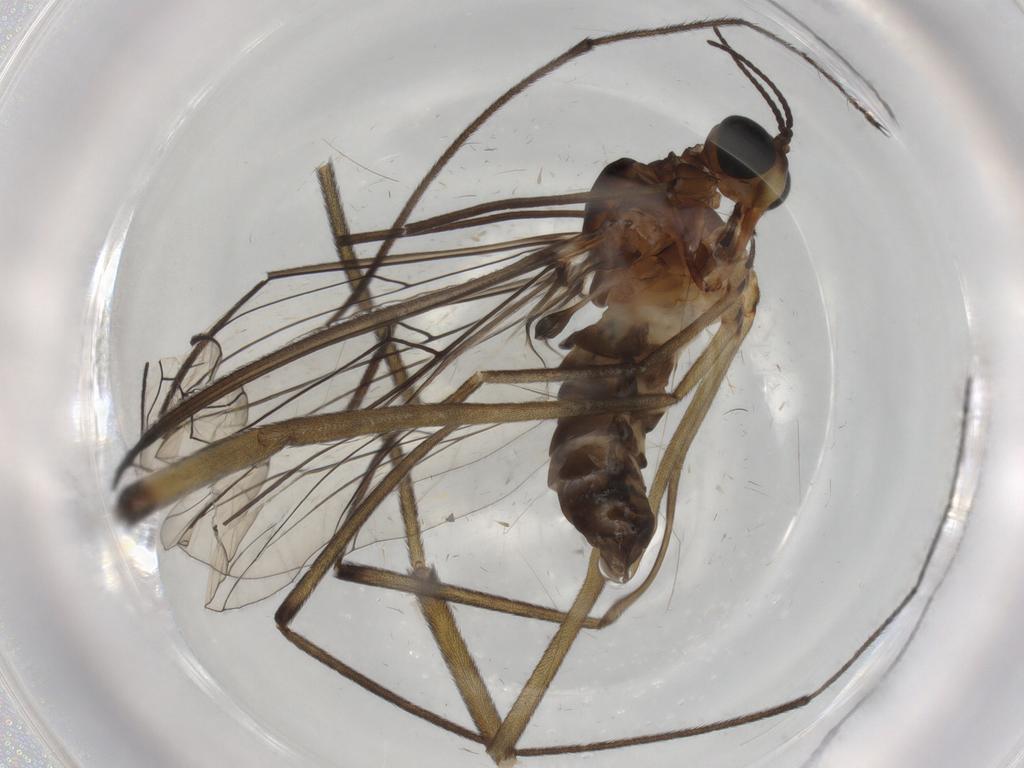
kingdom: Animalia
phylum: Arthropoda
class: Insecta
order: Diptera
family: Blephariceridae
